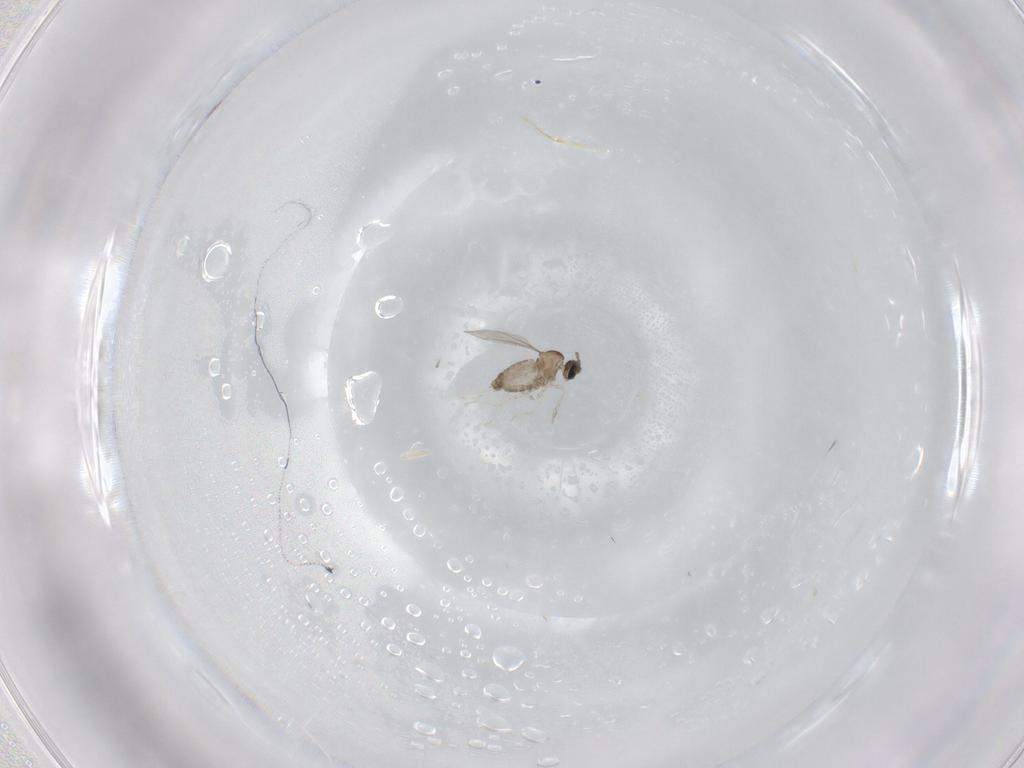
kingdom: Animalia
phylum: Arthropoda
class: Insecta
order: Diptera
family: Cecidomyiidae
